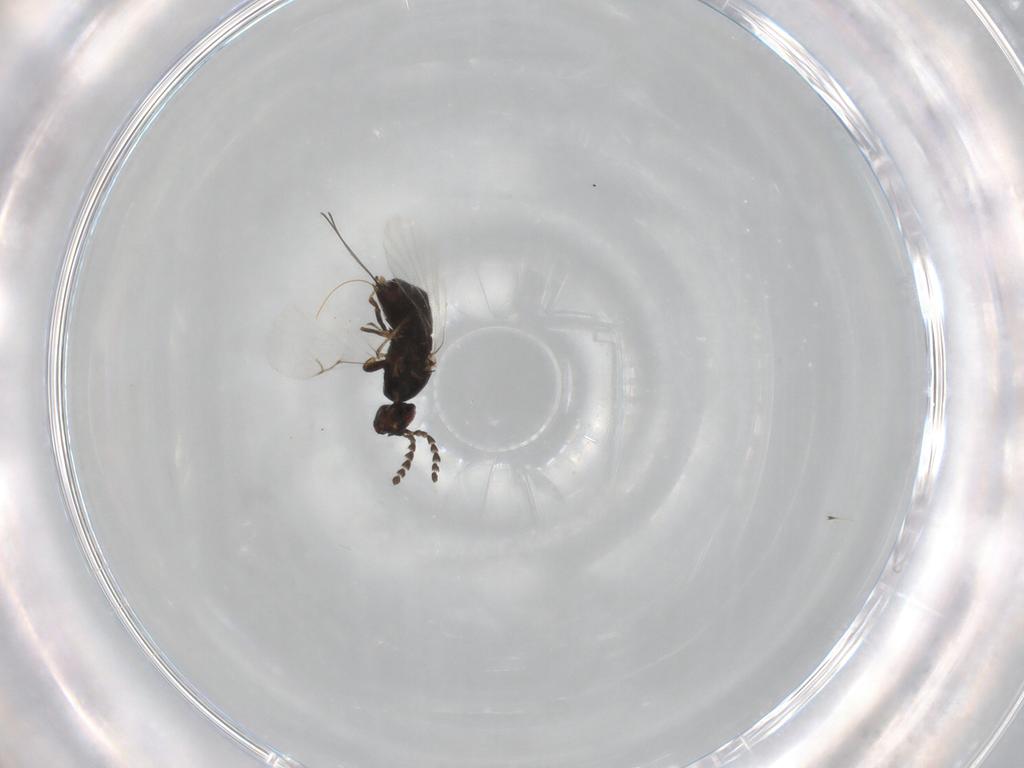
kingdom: Animalia
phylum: Arthropoda
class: Insecta
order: Hymenoptera
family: Agaonidae
